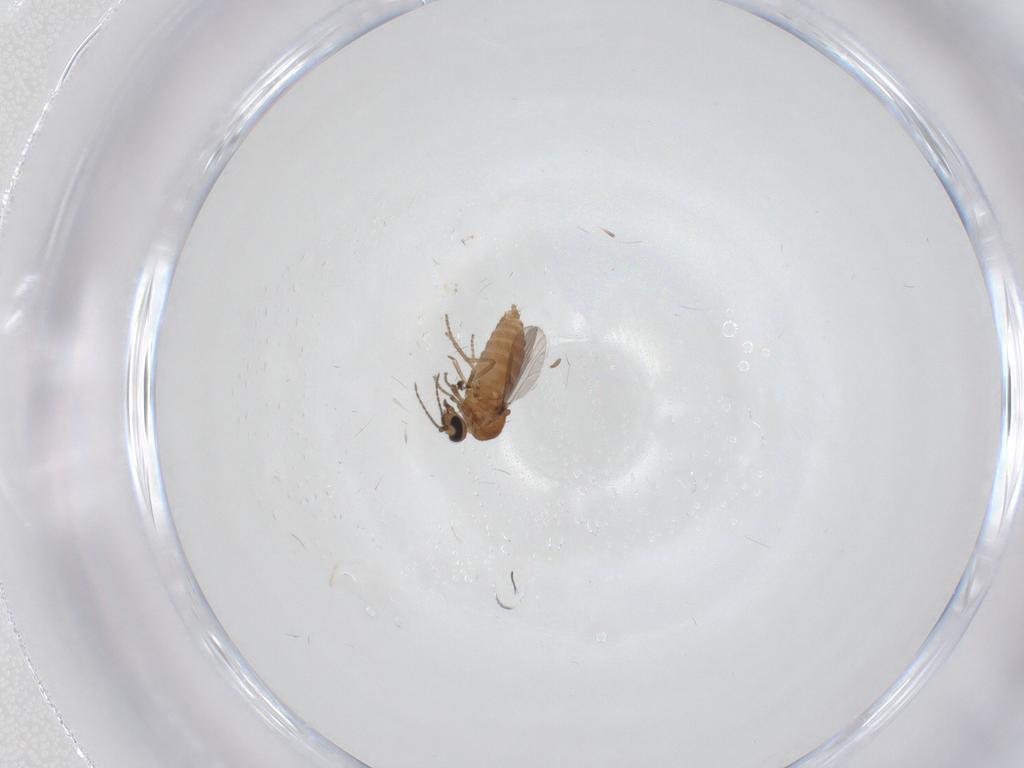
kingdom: Animalia
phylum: Arthropoda
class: Insecta
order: Diptera
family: Ceratopogonidae
